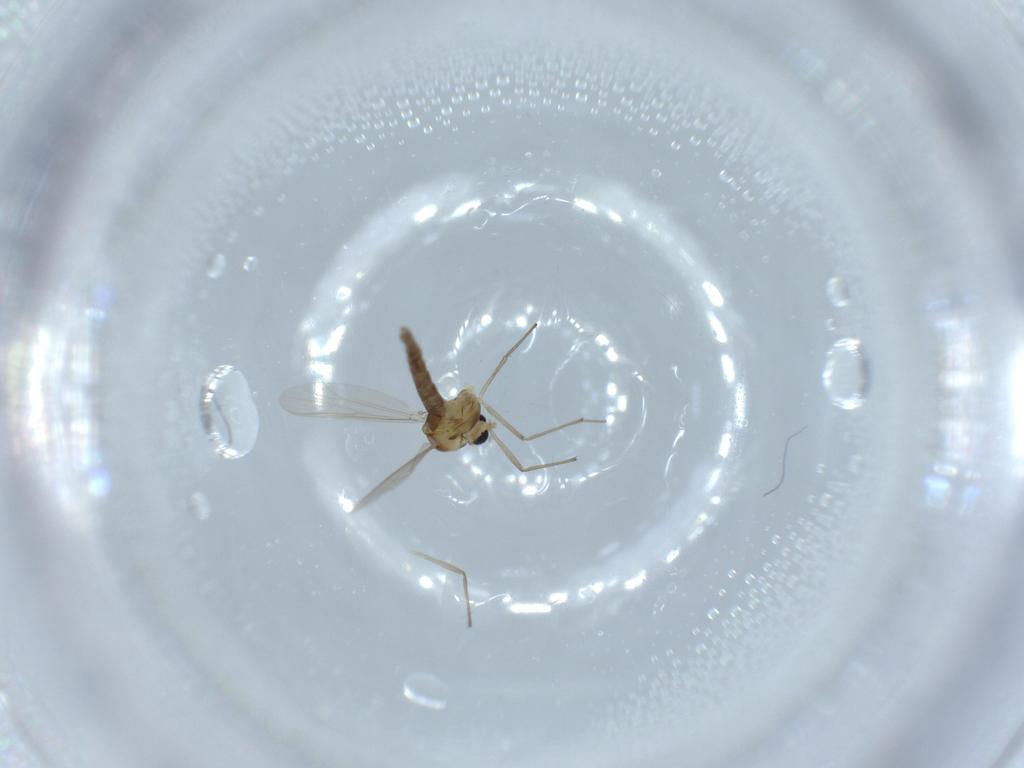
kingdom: Animalia
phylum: Arthropoda
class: Insecta
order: Diptera
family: Chironomidae
